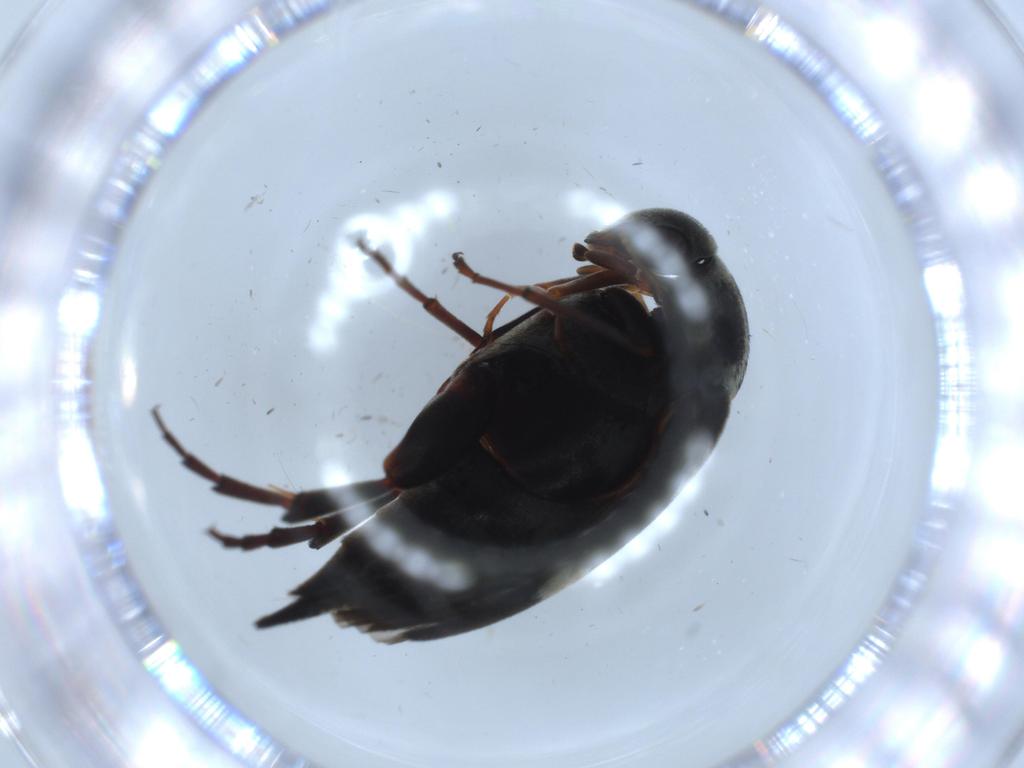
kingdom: Animalia
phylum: Arthropoda
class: Insecta
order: Coleoptera
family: Mordellidae
